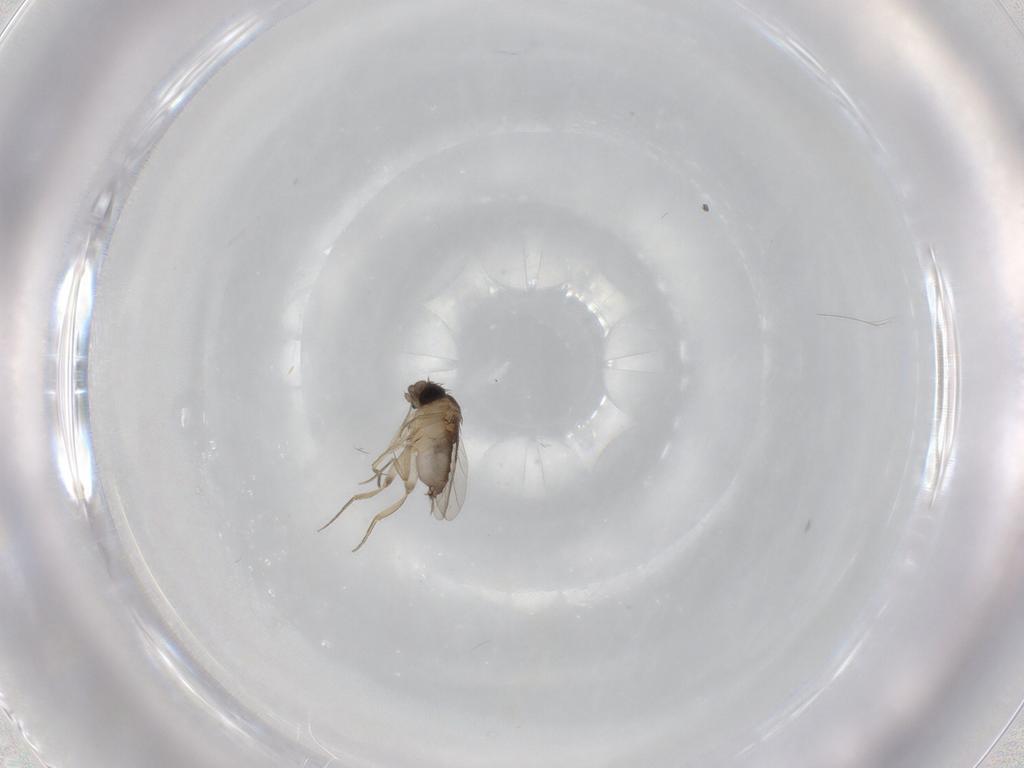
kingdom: Animalia
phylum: Arthropoda
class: Insecta
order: Diptera
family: Phoridae
